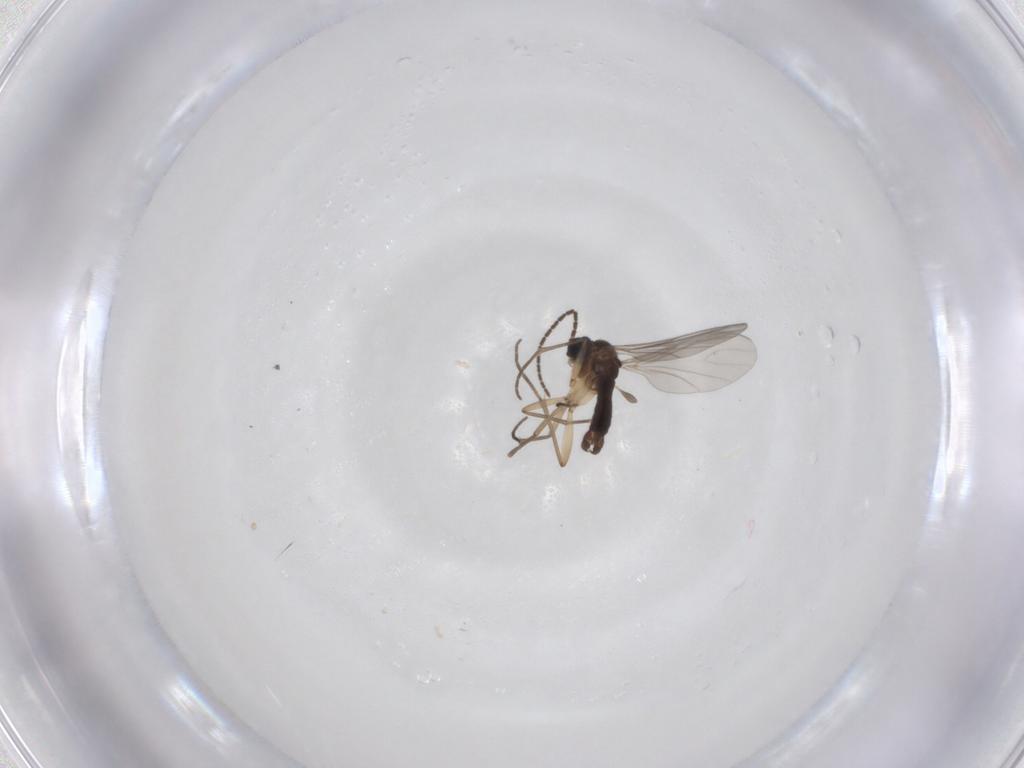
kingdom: Animalia
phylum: Arthropoda
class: Insecta
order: Diptera
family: Sciaridae
